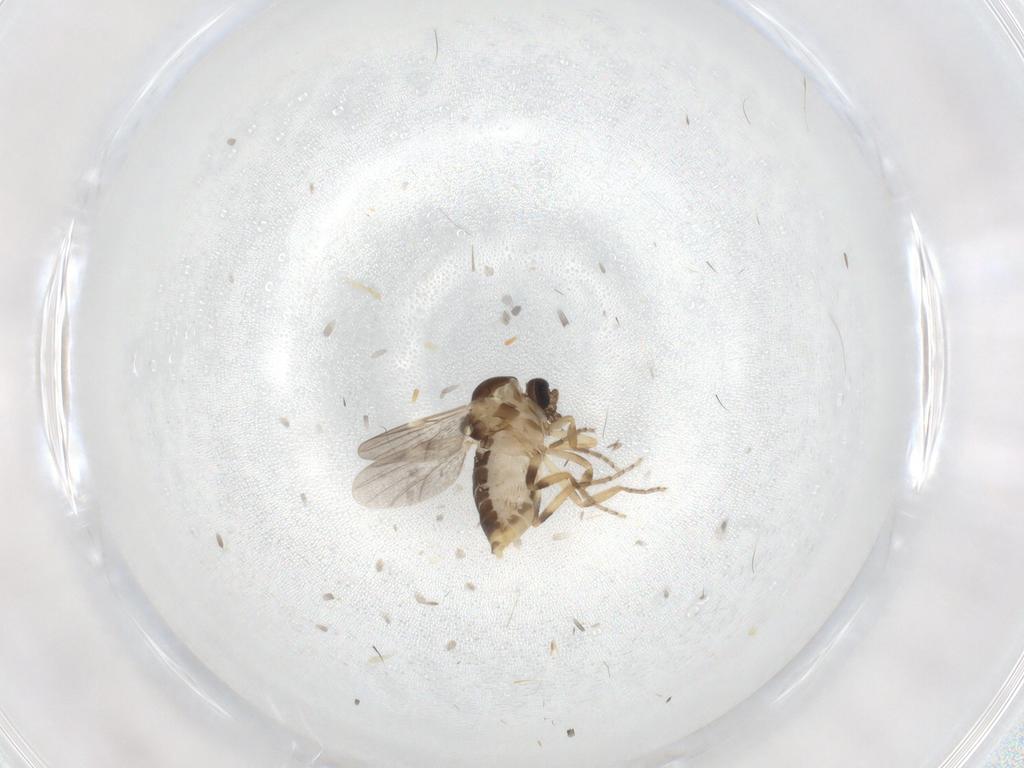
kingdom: Animalia
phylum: Arthropoda
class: Insecta
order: Diptera
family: Ceratopogonidae
